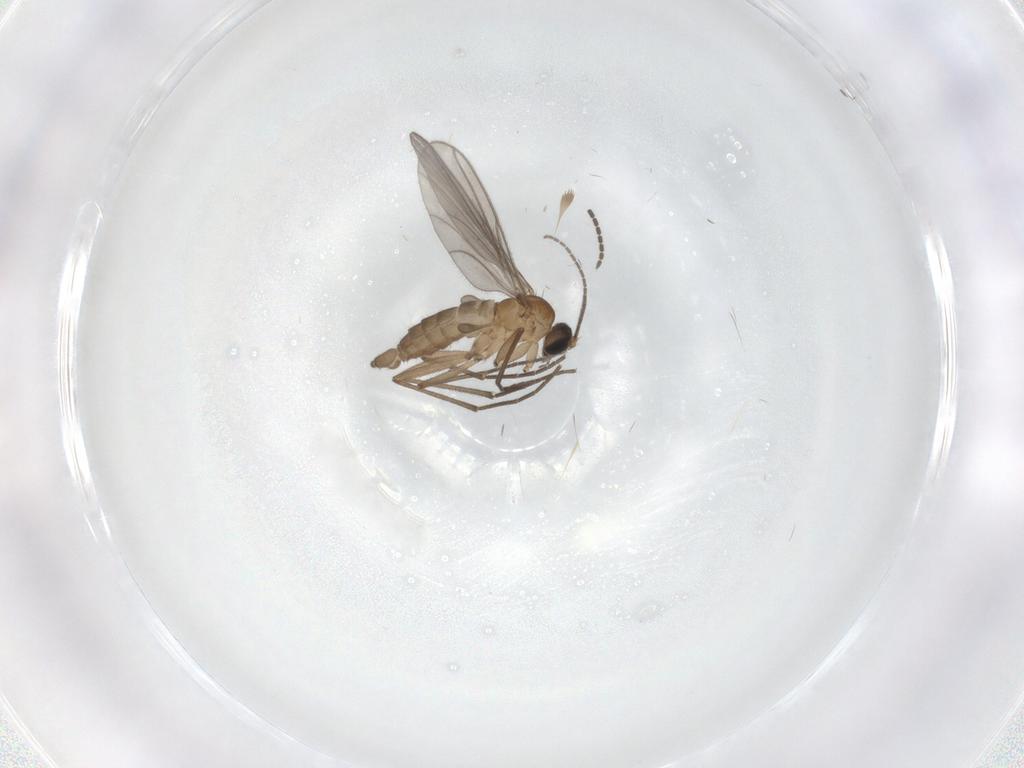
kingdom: Animalia
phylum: Arthropoda
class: Insecta
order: Diptera
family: Sciaridae
